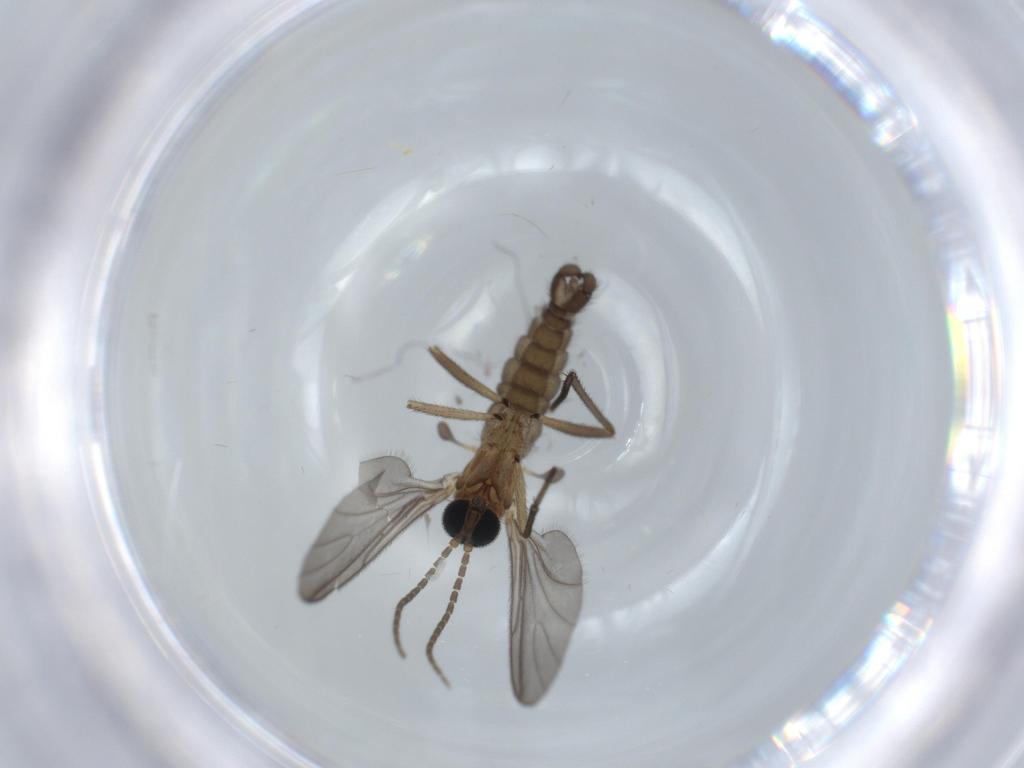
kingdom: Animalia
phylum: Arthropoda
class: Insecta
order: Diptera
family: Sciaridae
